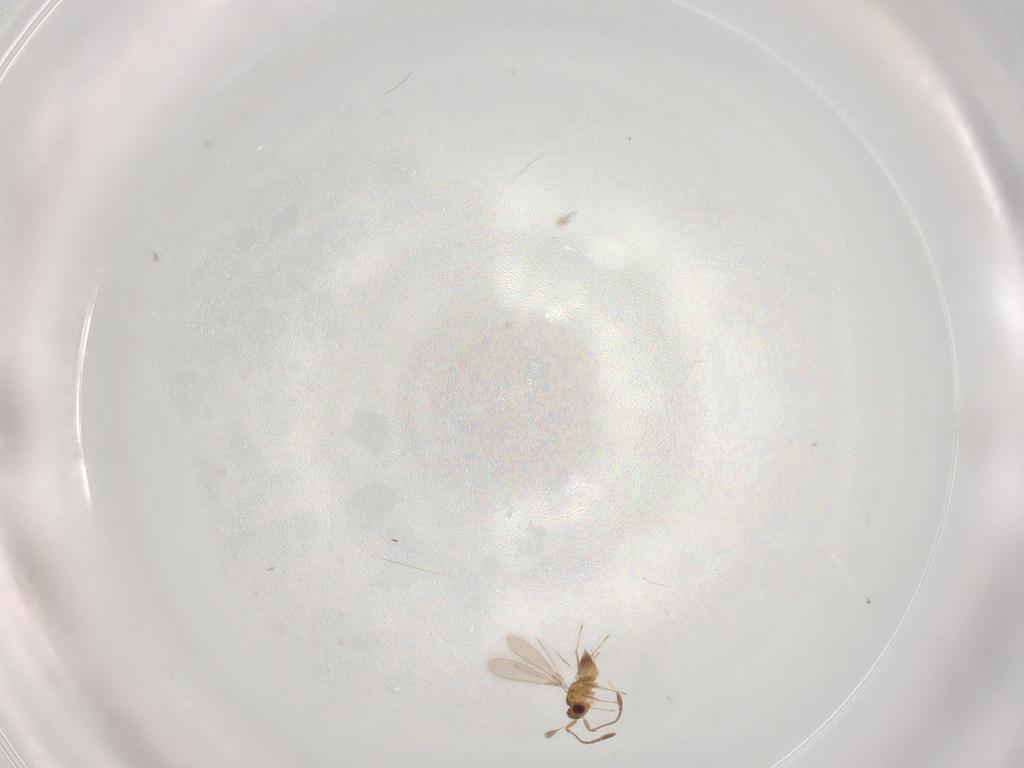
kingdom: Animalia
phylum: Arthropoda
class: Insecta
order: Hymenoptera
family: Mymaridae
